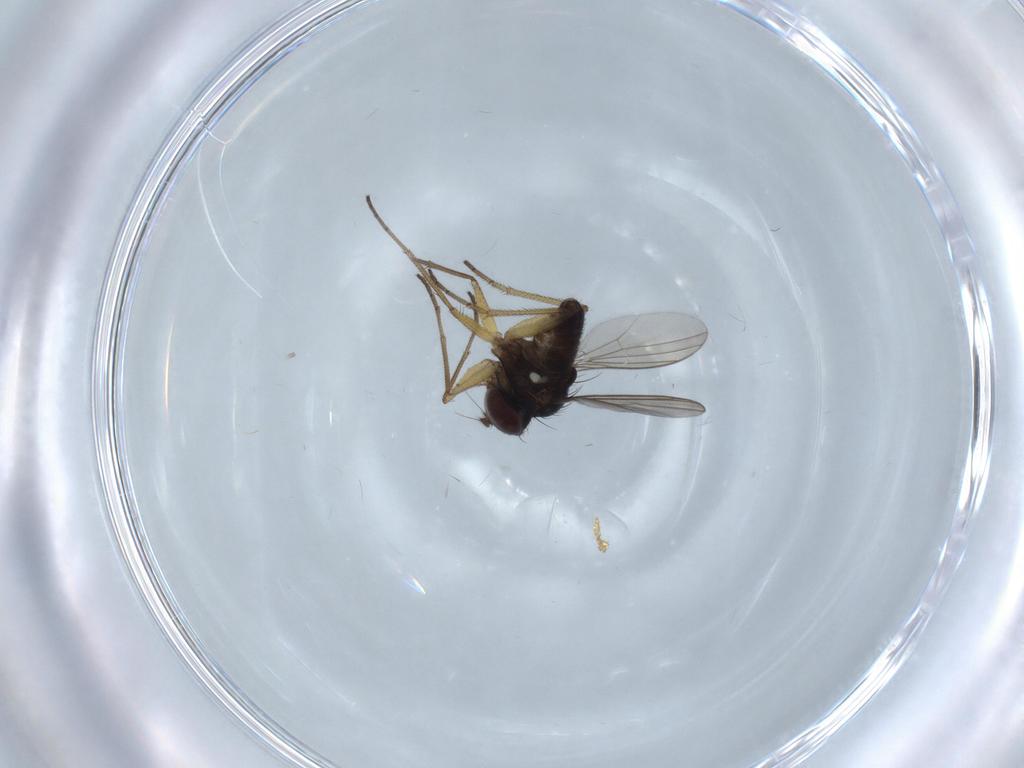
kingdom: Animalia
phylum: Arthropoda
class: Insecta
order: Diptera
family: Dolichopodidae
